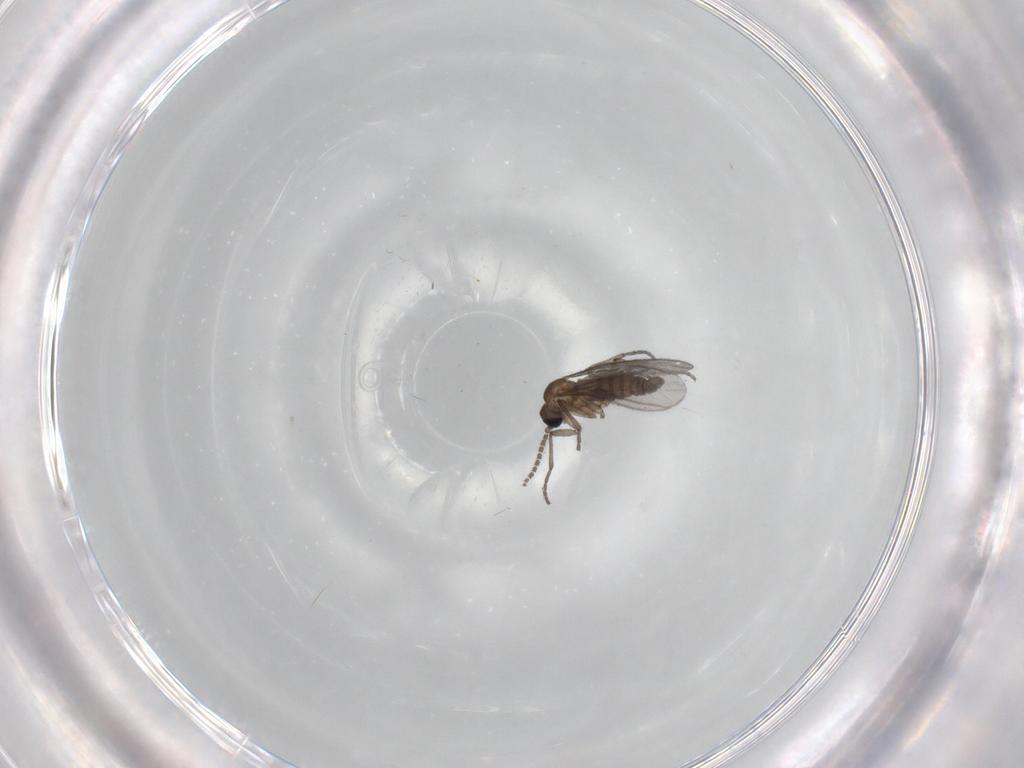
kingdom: Animalia
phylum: Arthropoda
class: Insecta
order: Diptera
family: Sciaridae
